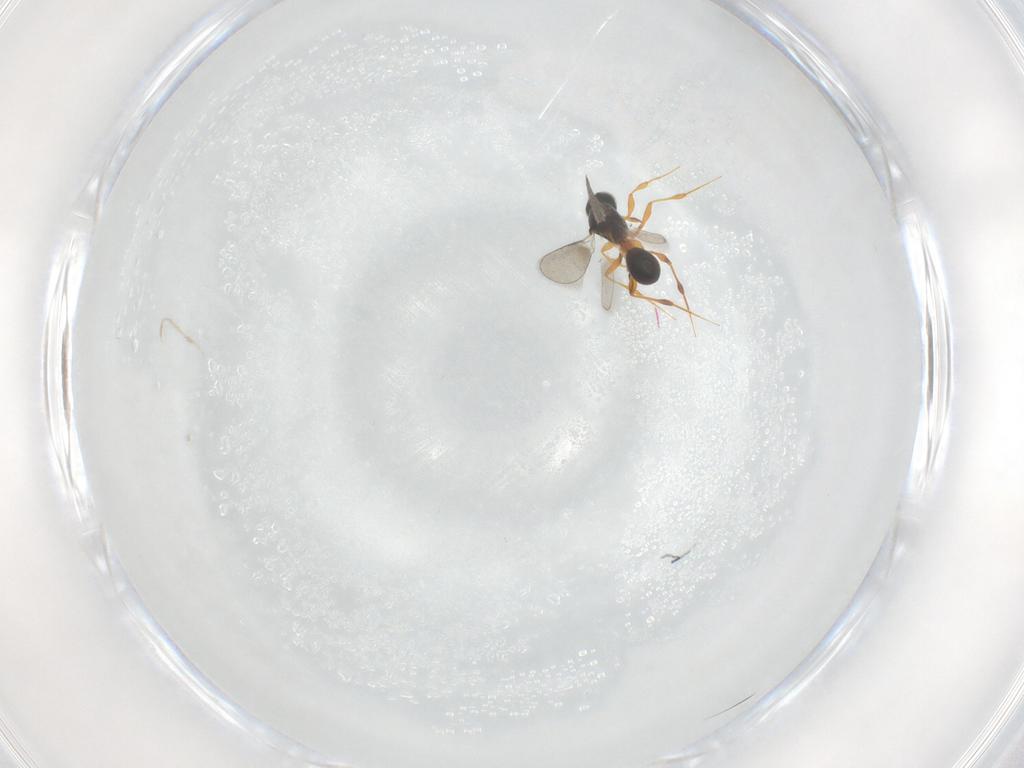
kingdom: Animalia
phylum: Arthropoda
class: Insecta
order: Hymenoptera
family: Platygastridae
